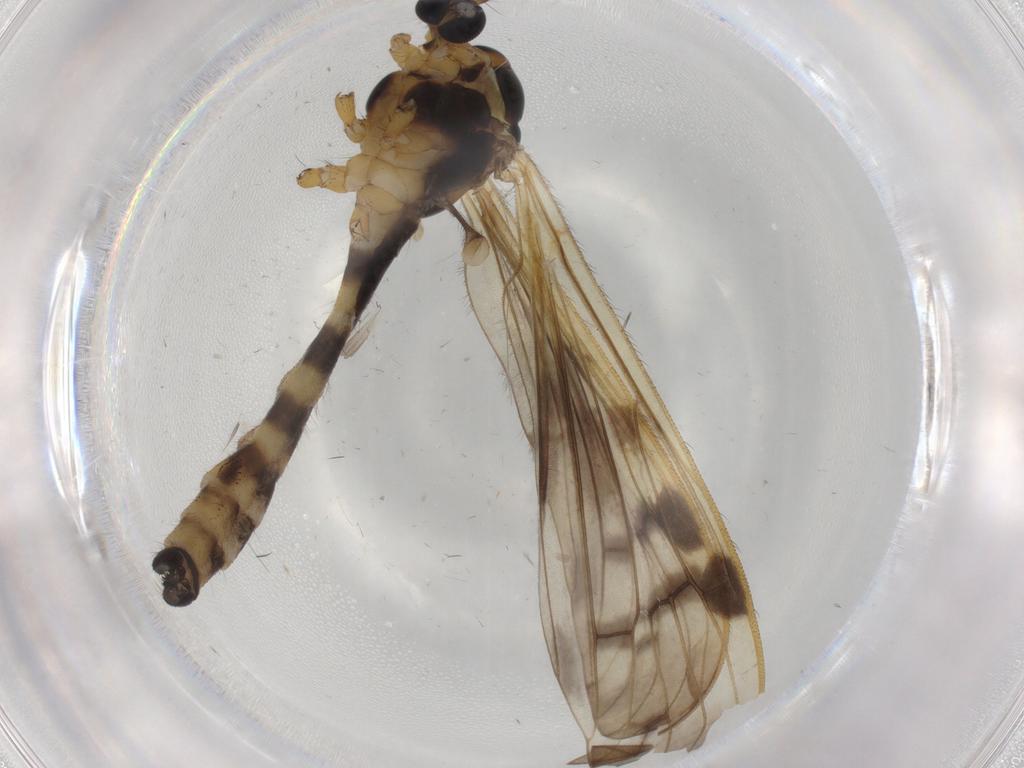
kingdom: Animalia
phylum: Arthropoda
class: Insecta
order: Diptera
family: Limoniidae
